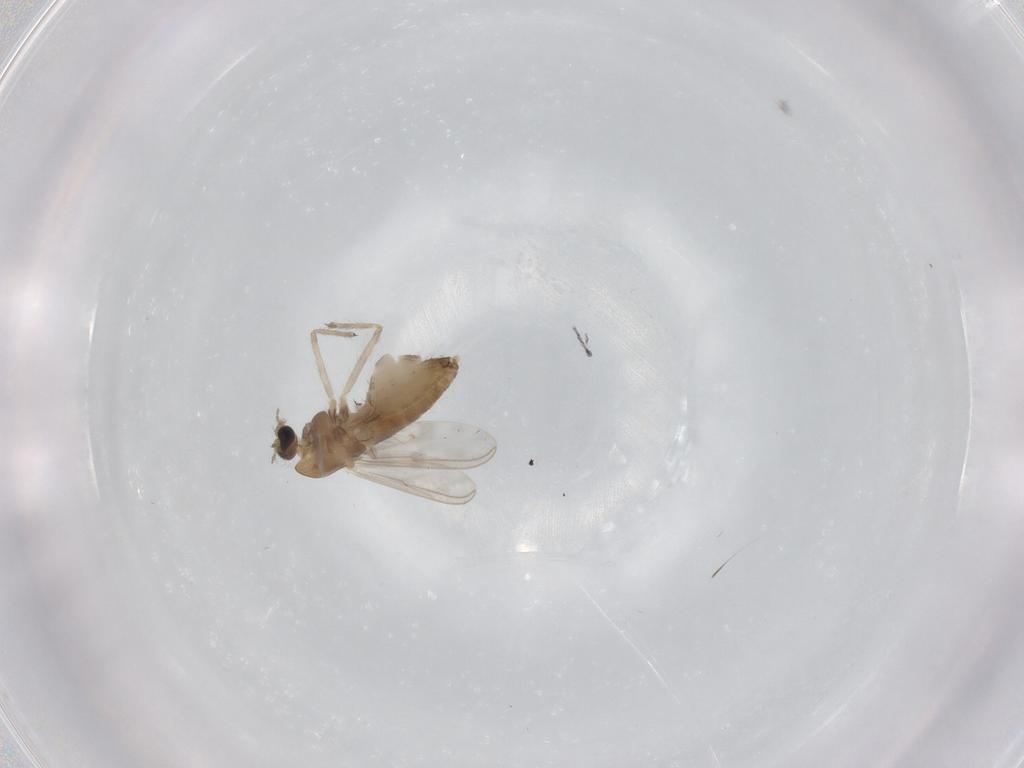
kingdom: Animalia
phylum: Arthropoda
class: Insecta
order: Diptera
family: Chironomidae
